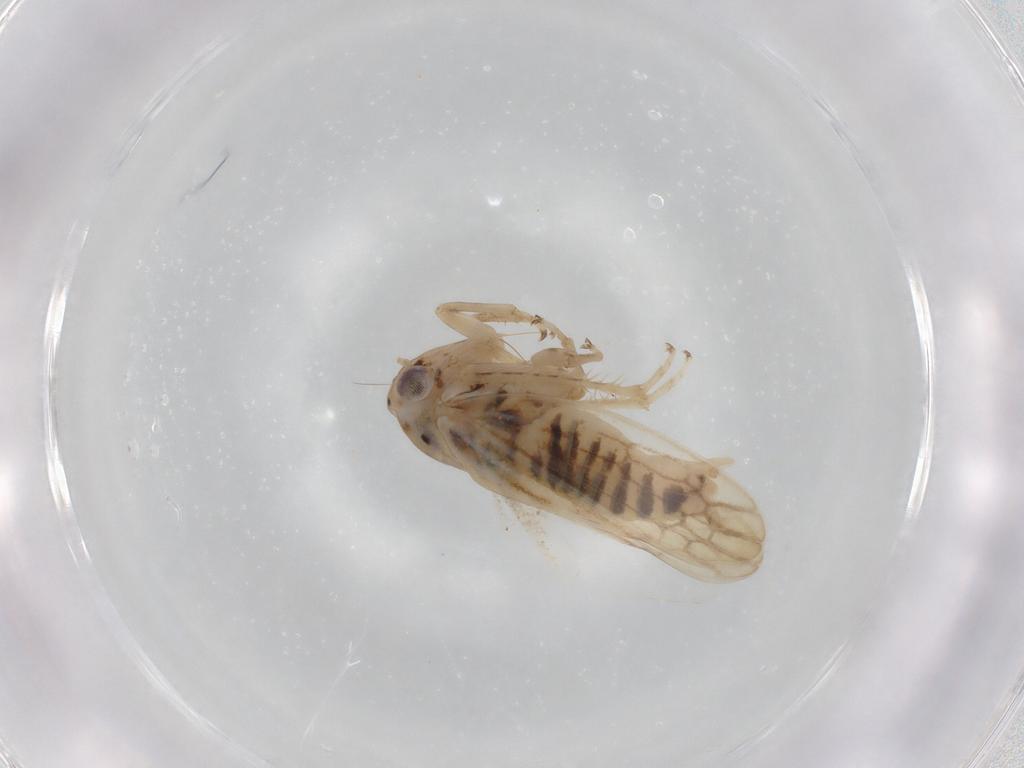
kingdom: Animalia
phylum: Arthropoda
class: Insecta
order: Hemiptera
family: Cicadellidae
